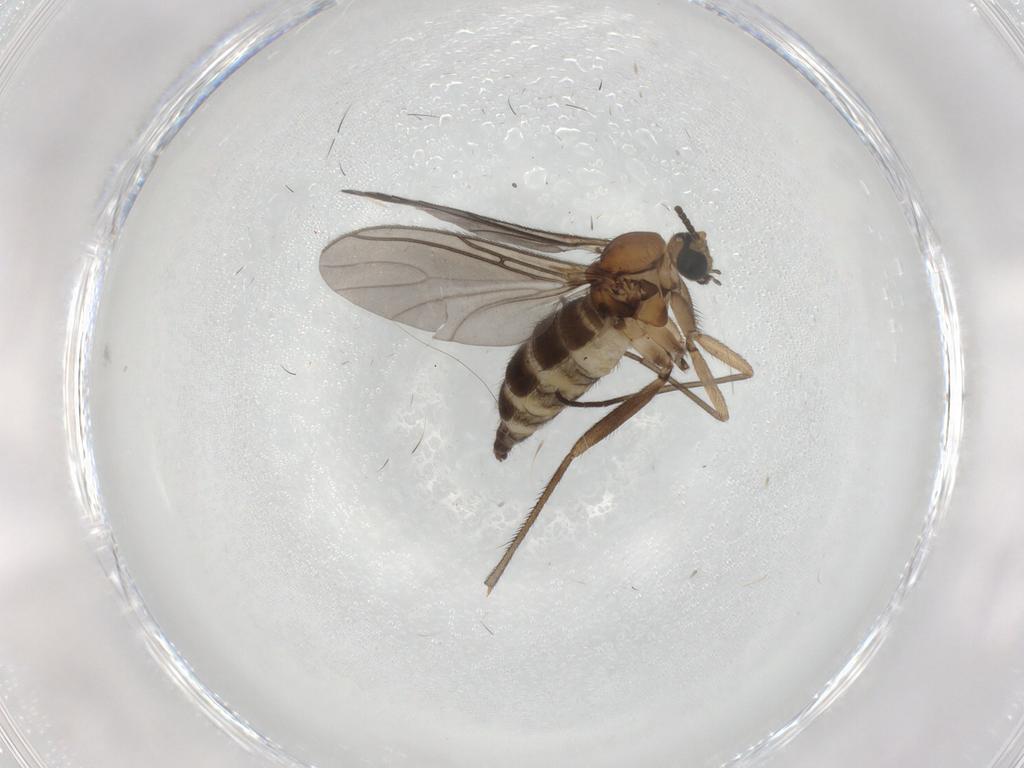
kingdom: Animalia
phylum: Arthropoda
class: Insecta
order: Diptera
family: Sciaridae
